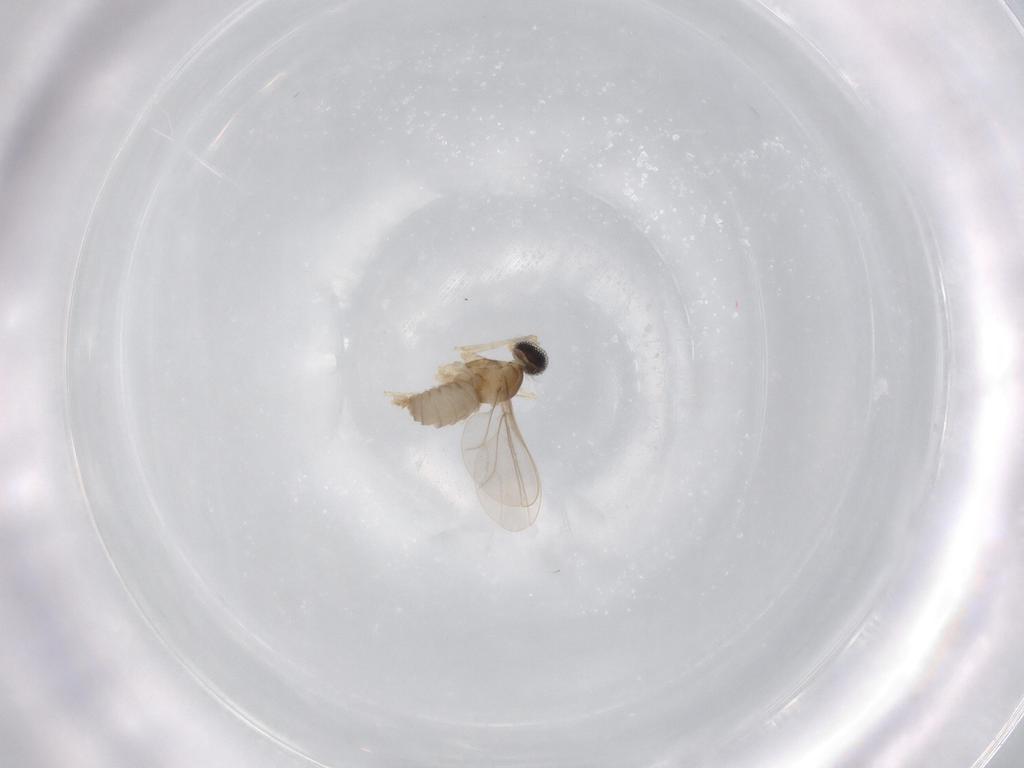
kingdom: Animalia
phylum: Arthropoda
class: Insecta
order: Diptera
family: Cecidomyiidae
